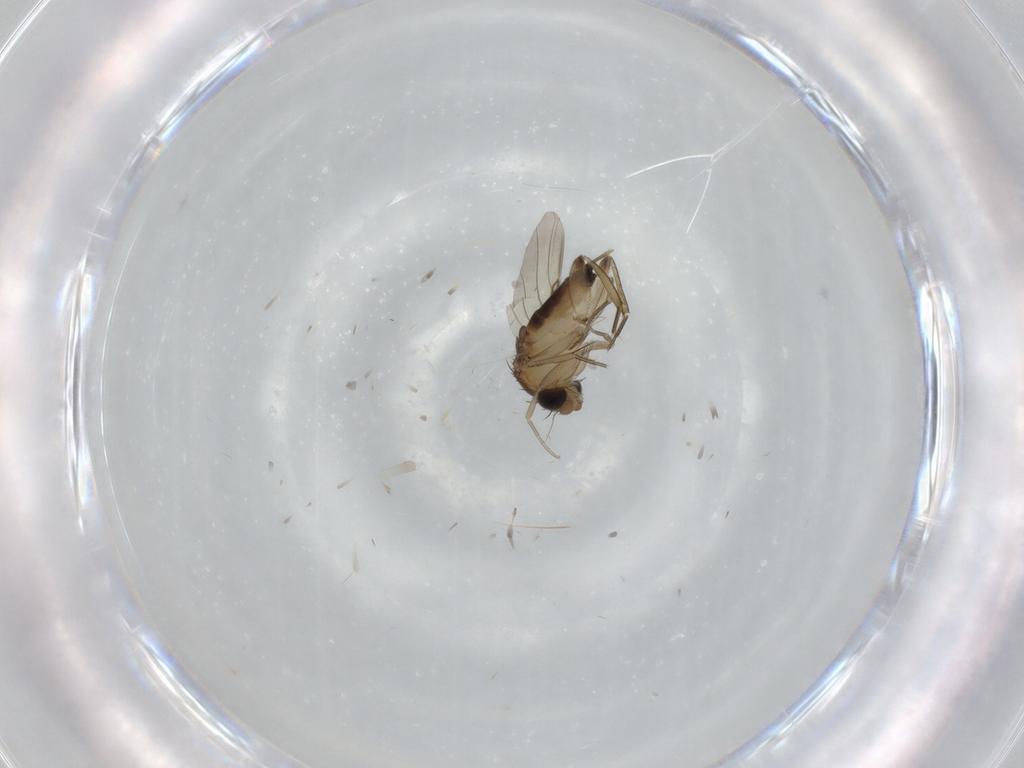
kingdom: Animalia
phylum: Arthropoda
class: Insecta
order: Diptera
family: Phoridae
